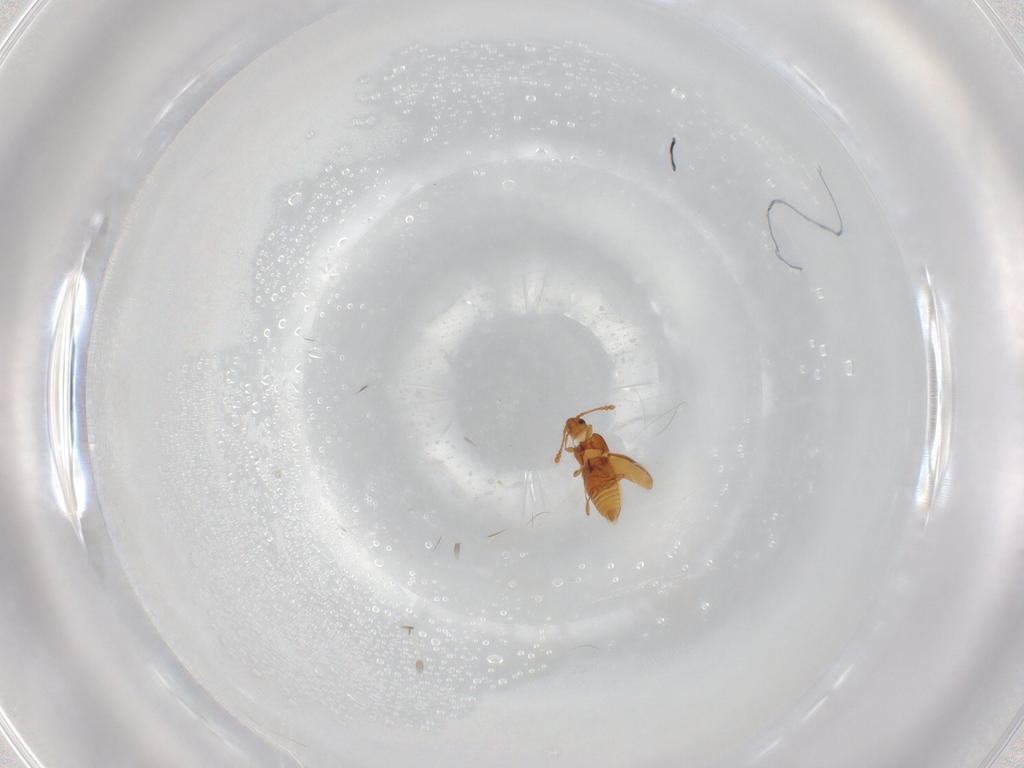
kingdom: Animalia
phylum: Arthropoda
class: Insecta
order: Coleoptera
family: Staphylinidae
